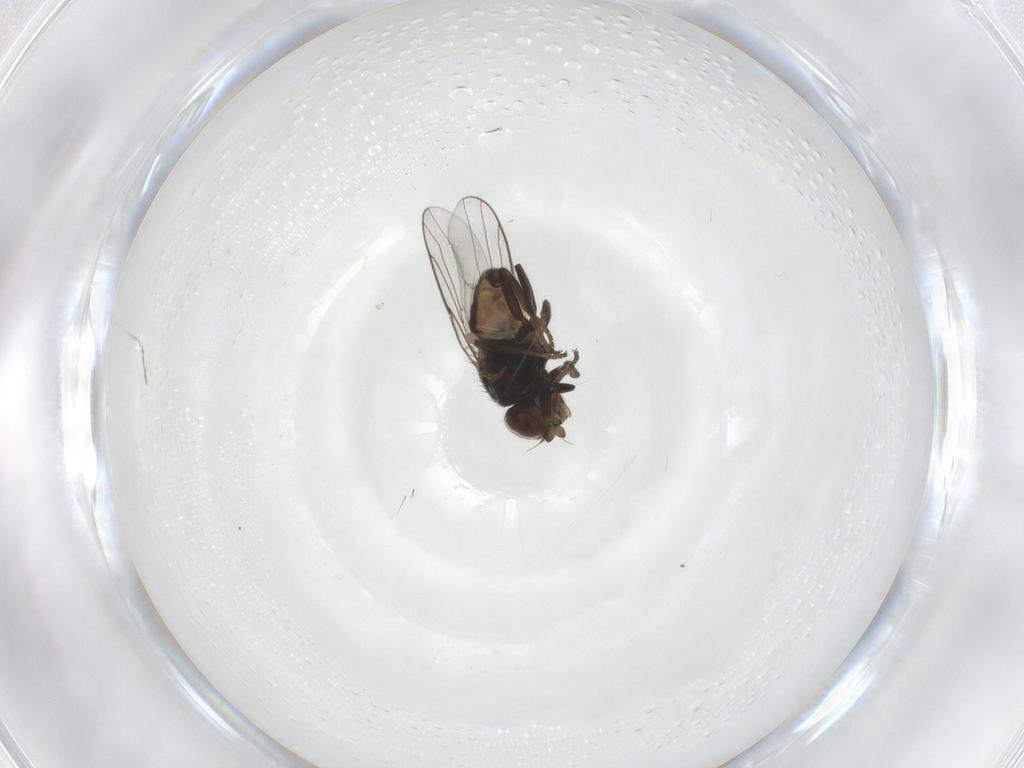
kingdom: Animalia
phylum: Arthropoda
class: Insecta
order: Diptera
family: Chloropidae
